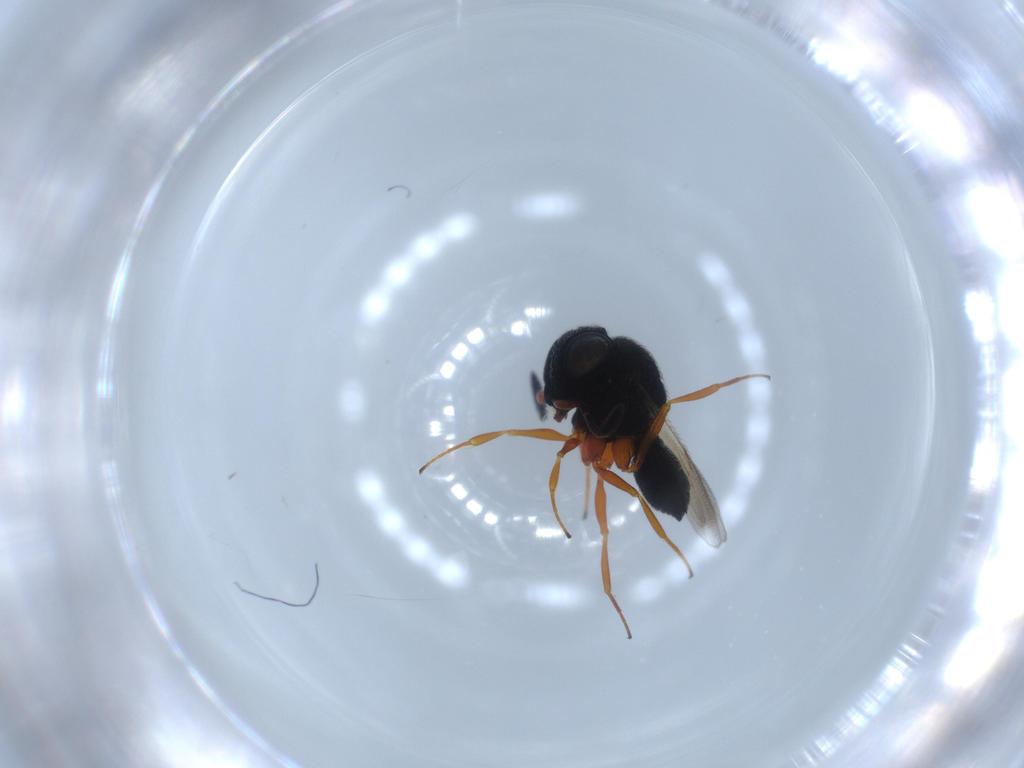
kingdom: Animalia
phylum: Arthropoda
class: Insecta
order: Hymenoptera
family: Scelionidae
